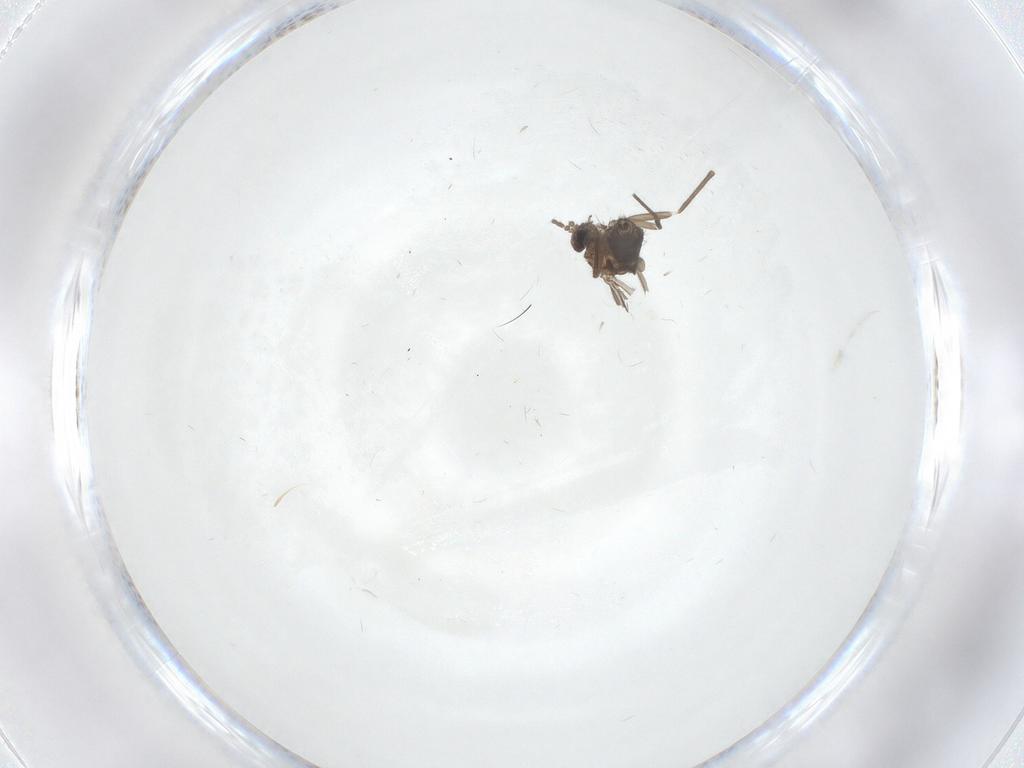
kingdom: Animalia
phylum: Arthropoda
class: Insecta
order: Diptera
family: Sciaridae
